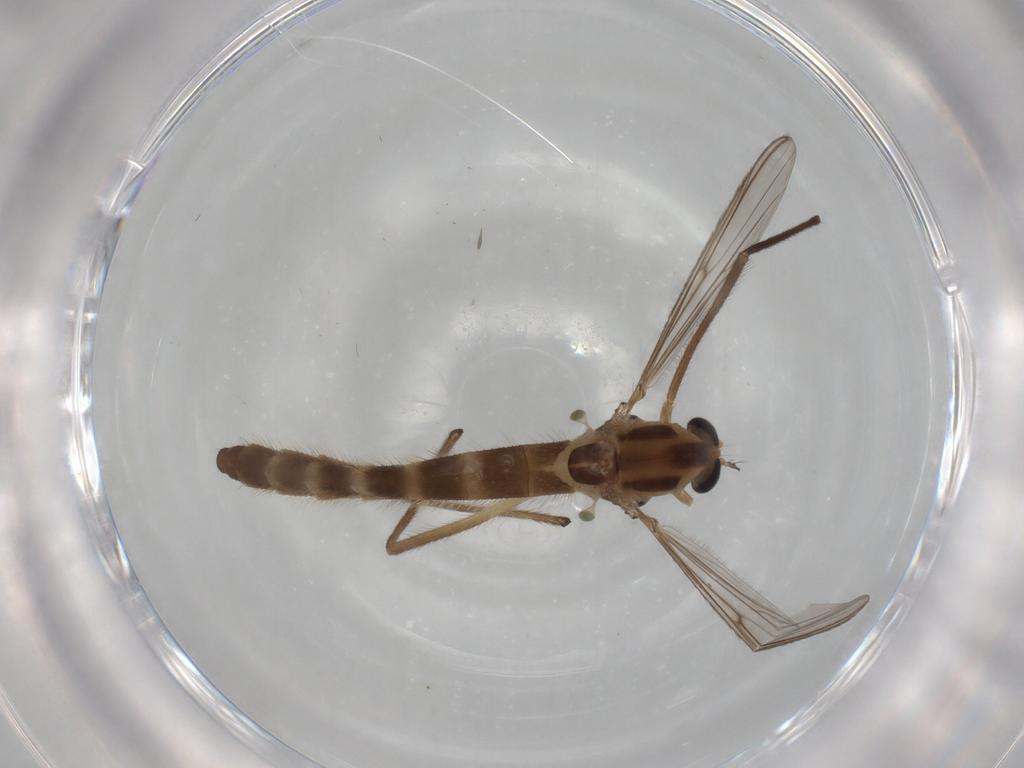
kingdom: Animalia
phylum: Arthropoda
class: Insecta
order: Diptera
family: Chironomidae
